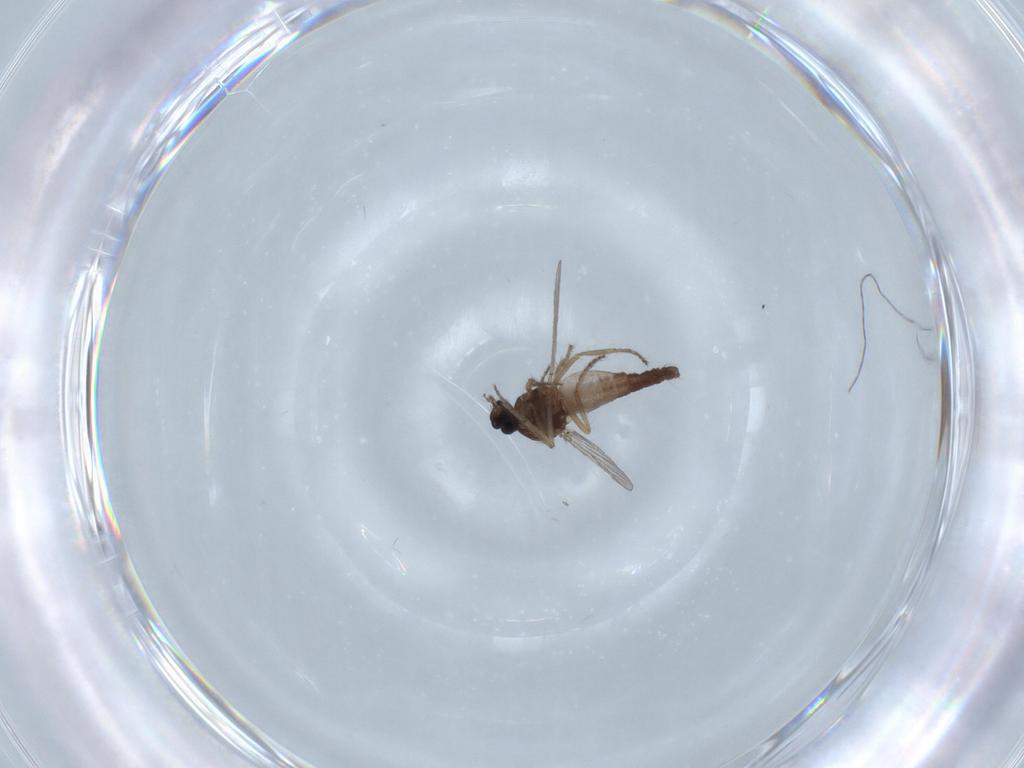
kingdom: Animalia
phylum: Arthropoda
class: Insecta
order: Diptera
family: Ceratopogonidae
